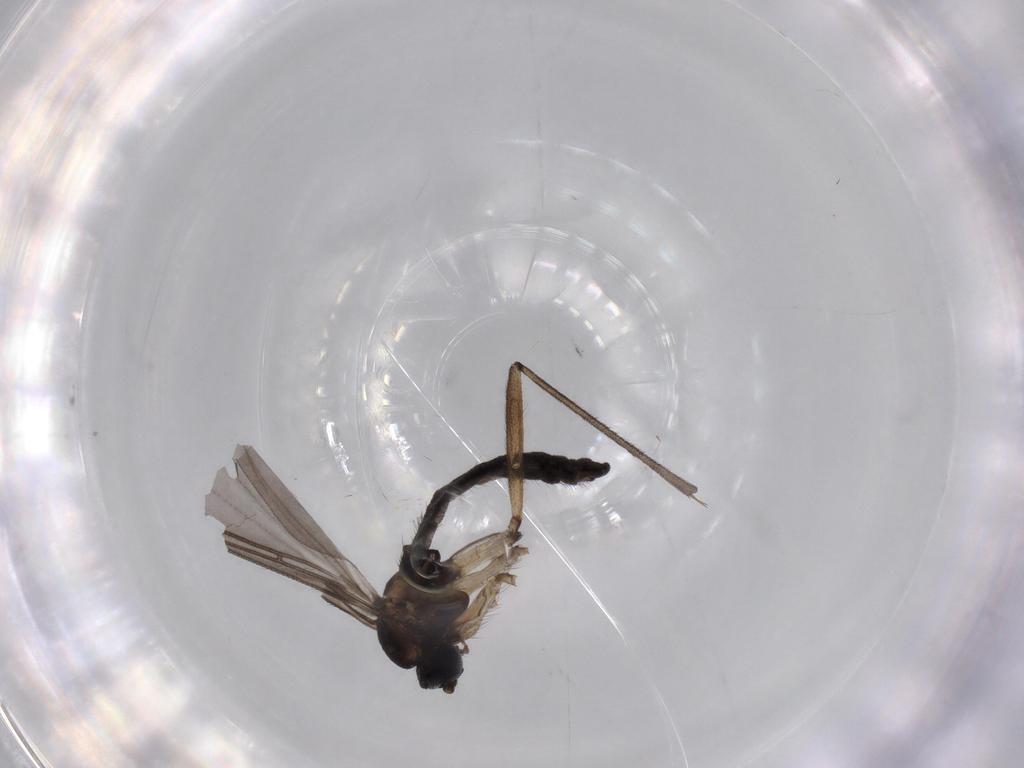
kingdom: Animalia
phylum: Arthropoda
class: Insecta
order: Diptera
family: Sciaridae
